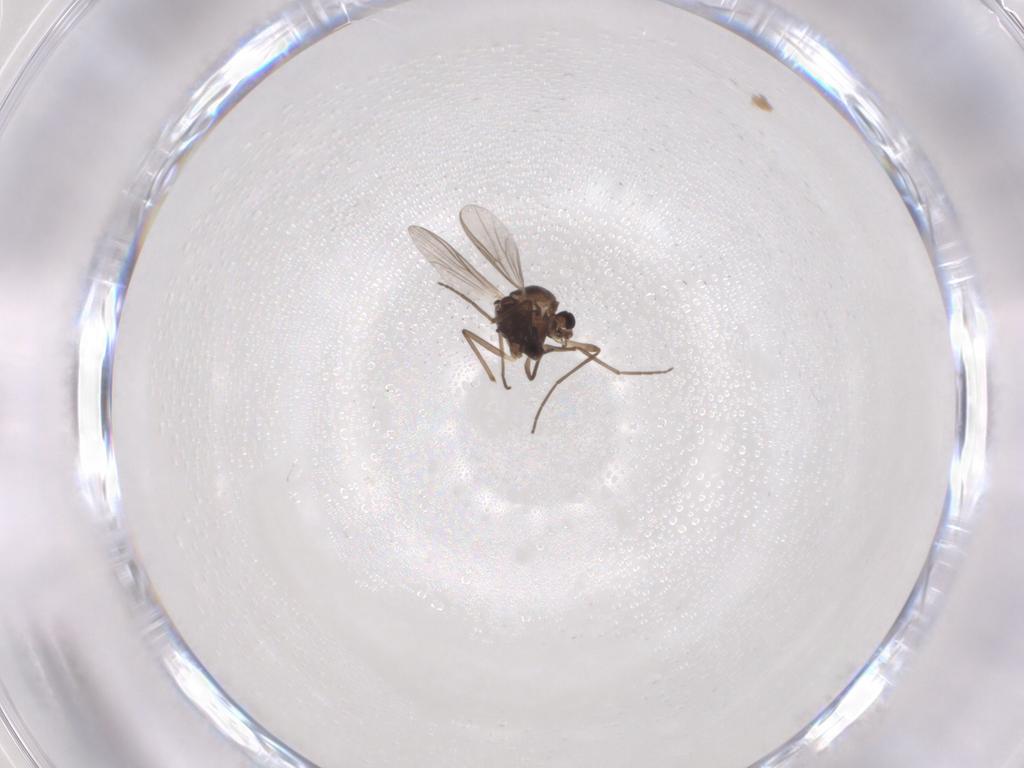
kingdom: Animalia
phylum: Arthropoda
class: Insecta
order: Diptera
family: Chironomidae
